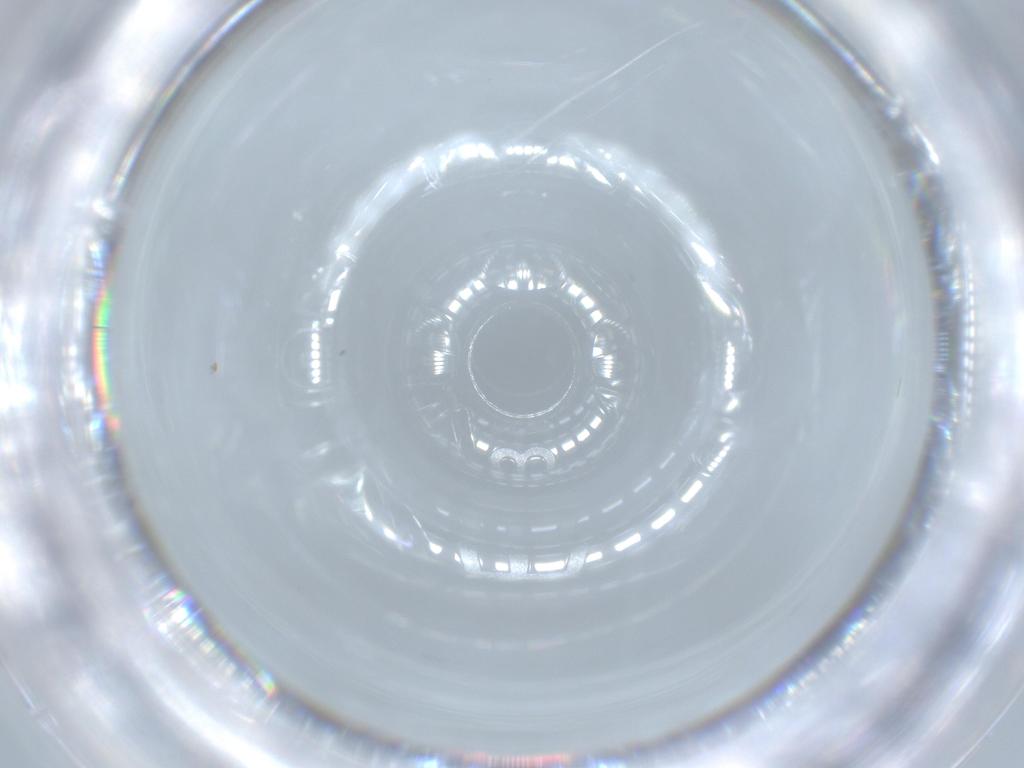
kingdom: Animalia
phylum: Arthropoda
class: Insecta
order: Blattodea
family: Ectobiidae
